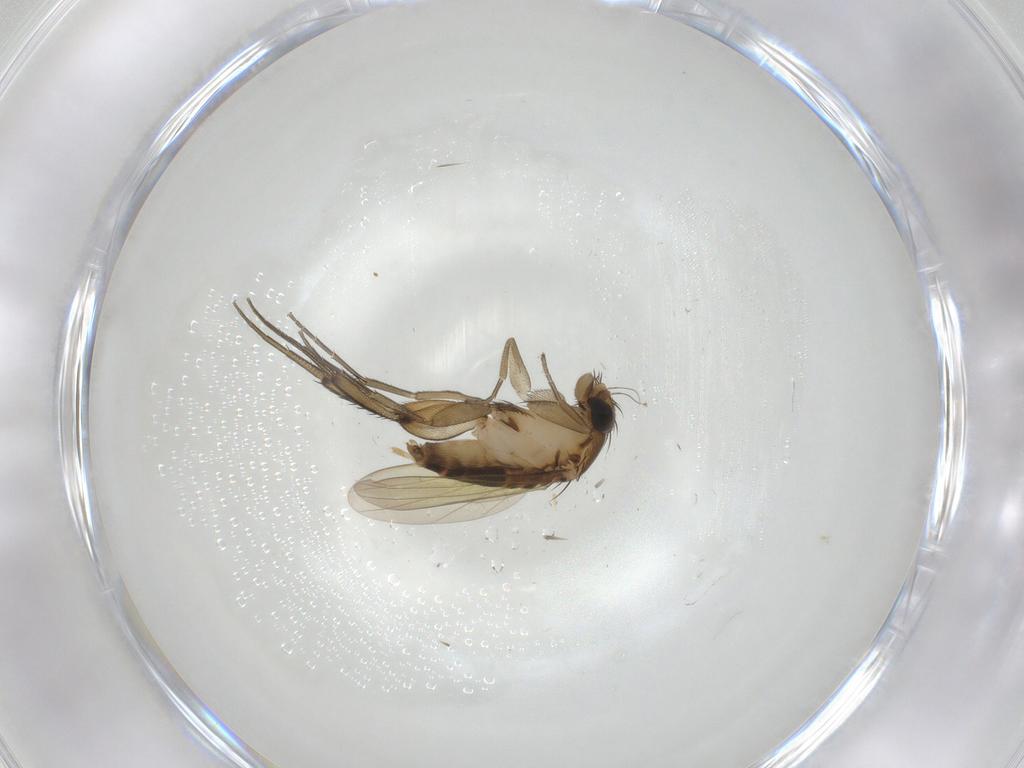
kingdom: Animalia
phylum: Arthropoda
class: Insecta
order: Diptera
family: Phoridae
